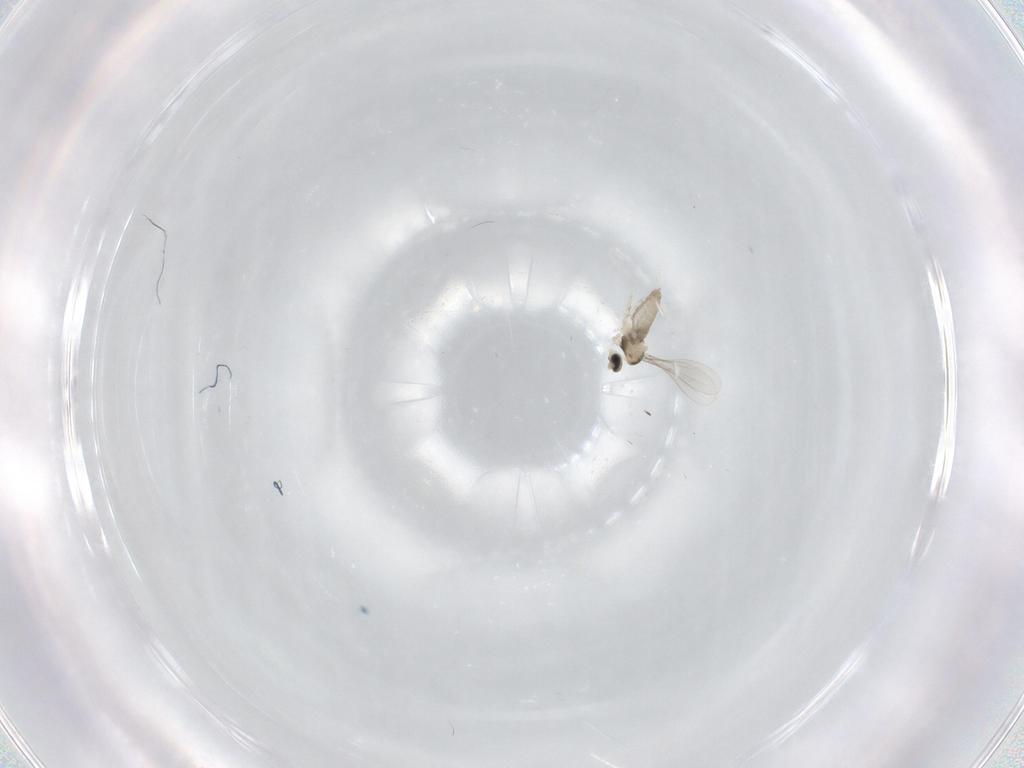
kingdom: Animalia
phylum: Arthropoda
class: Insecta
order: Diptera
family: Cecidomyiidae
